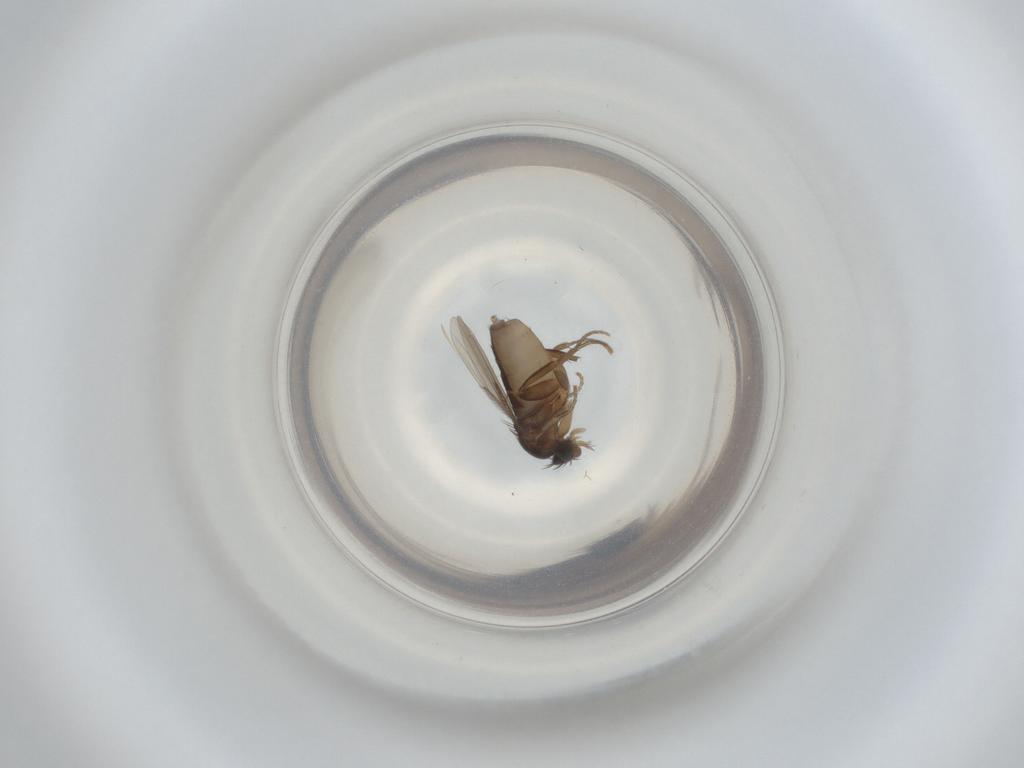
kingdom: Animalia
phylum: Arthropoda
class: Insecta
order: Diptera
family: Phoridae
